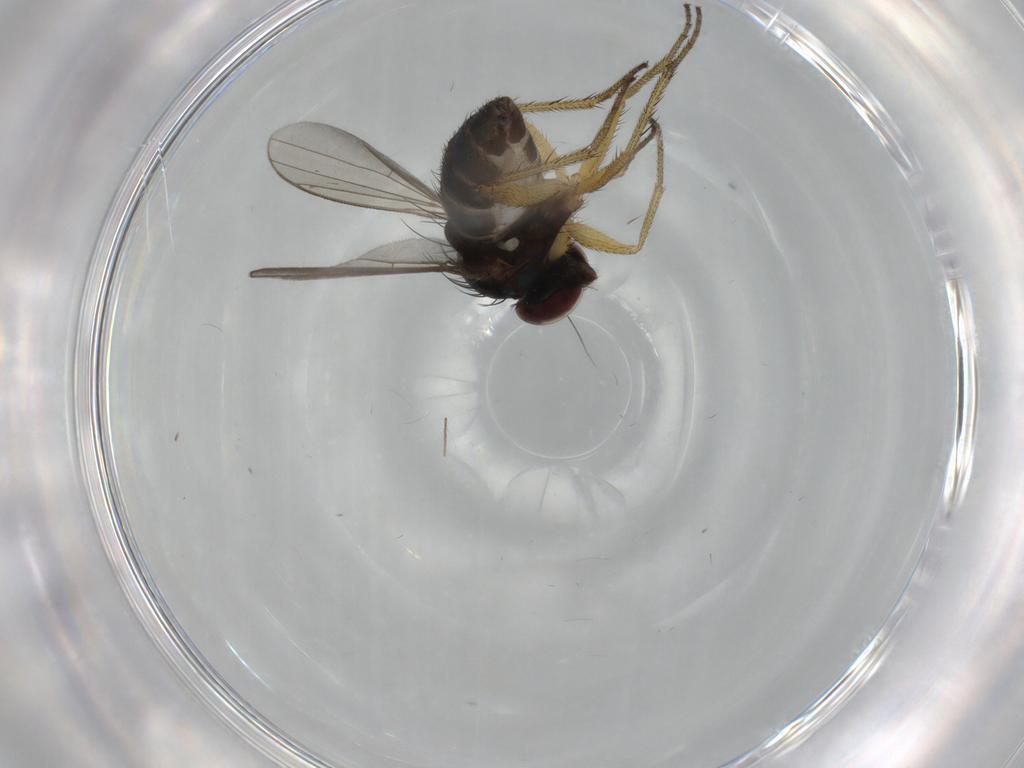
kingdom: Animalia
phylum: Arthropoda
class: Insecta
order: Diptera
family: Dolichopodidae
